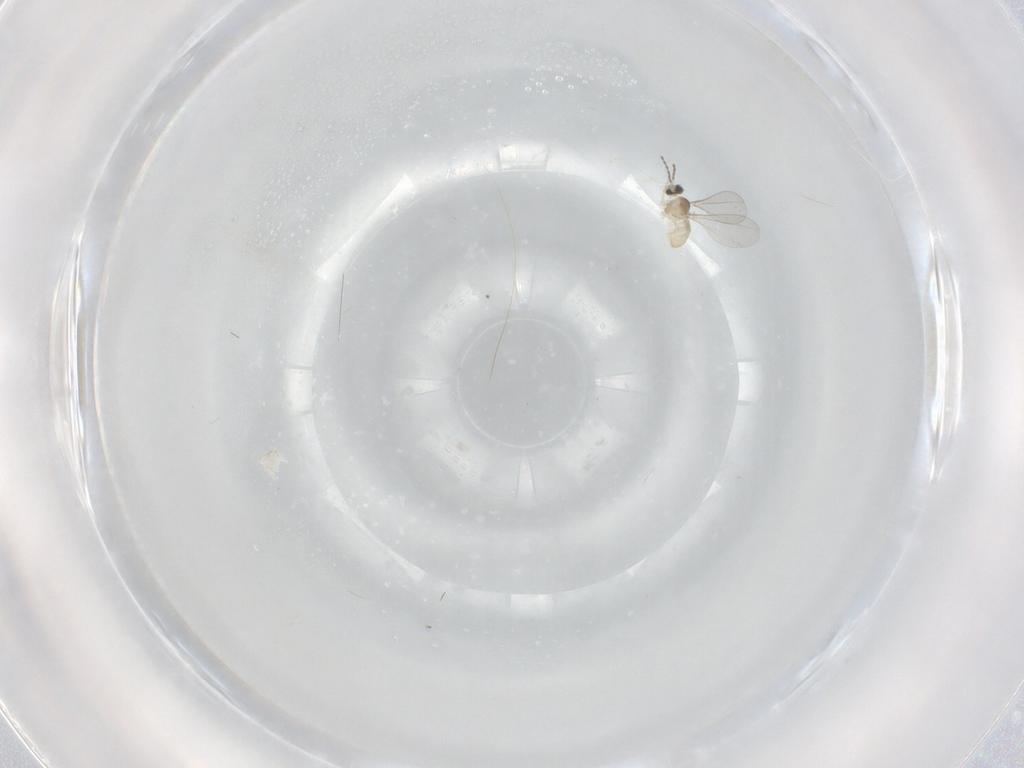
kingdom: Animalia
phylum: Arthropoda
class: Insecta
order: Diptera
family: Cecidomyiidae
